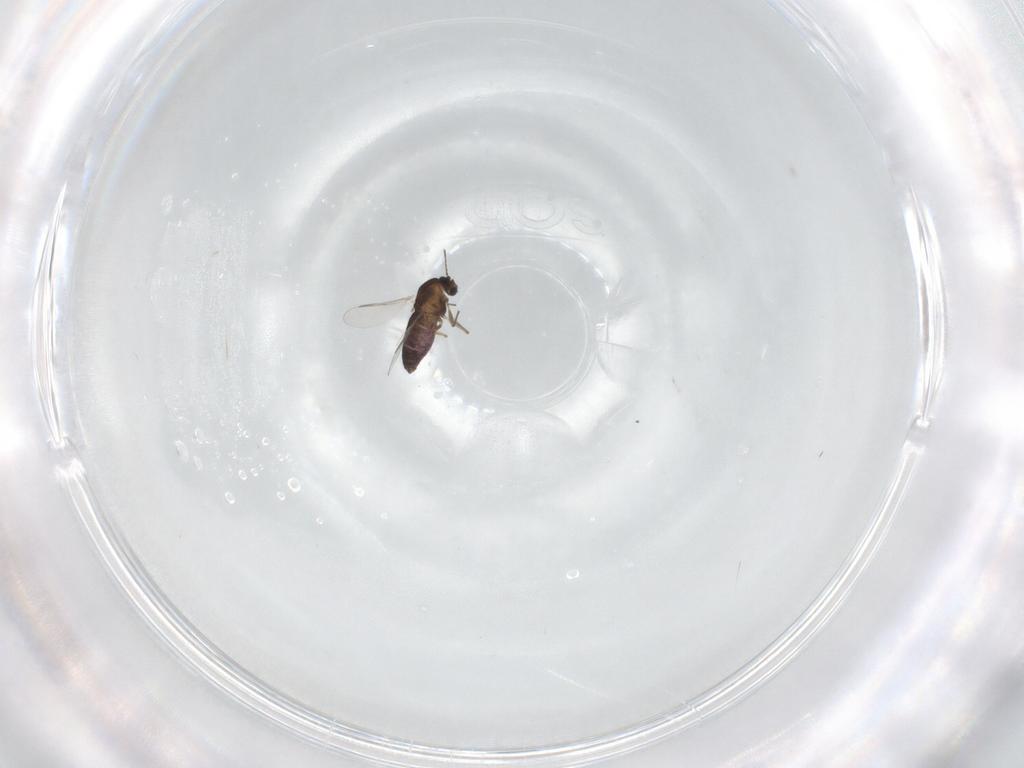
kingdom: Animalia
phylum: Arthropoda
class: Insecta
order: Diptera
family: Chironomidae
